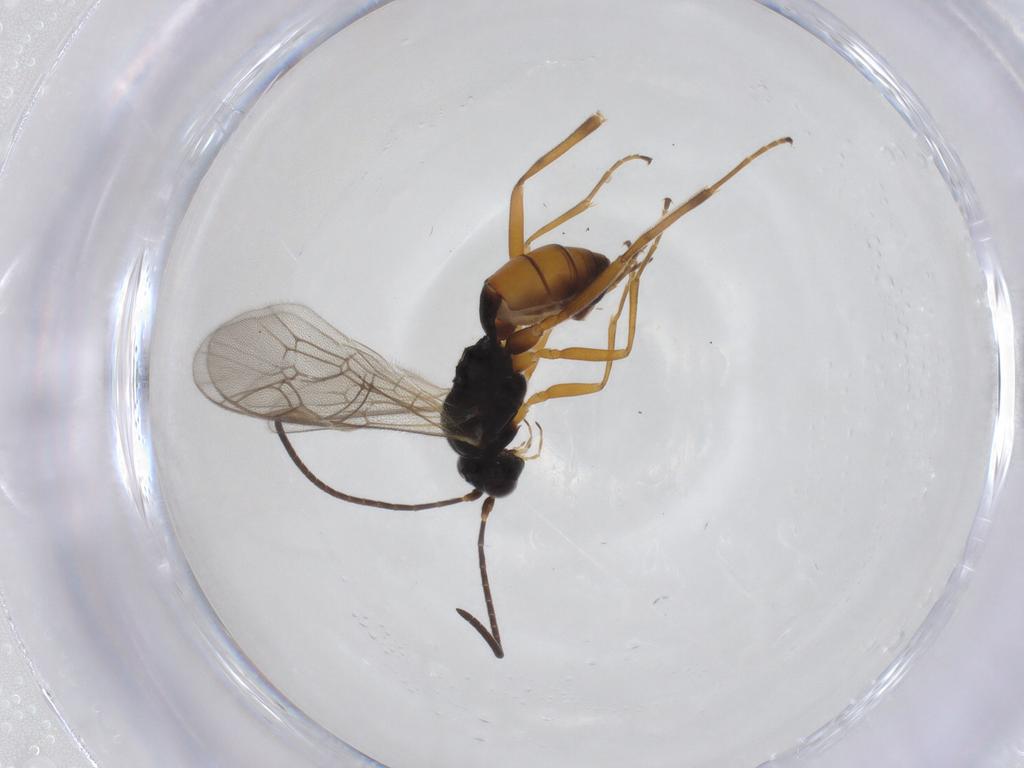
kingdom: Animalia
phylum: Arthropoda
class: Insecta
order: Hymenoptera
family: Ichneumonidae
